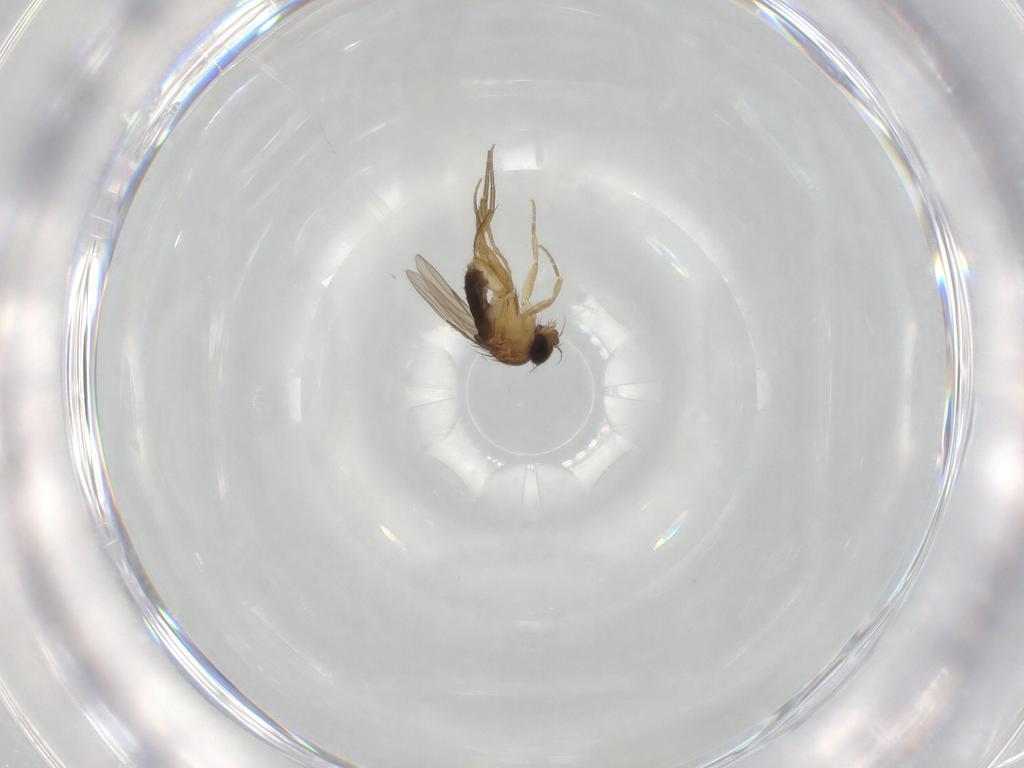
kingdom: Animalia
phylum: Arthropoda
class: Insecta
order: Diptera
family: Phoridae
